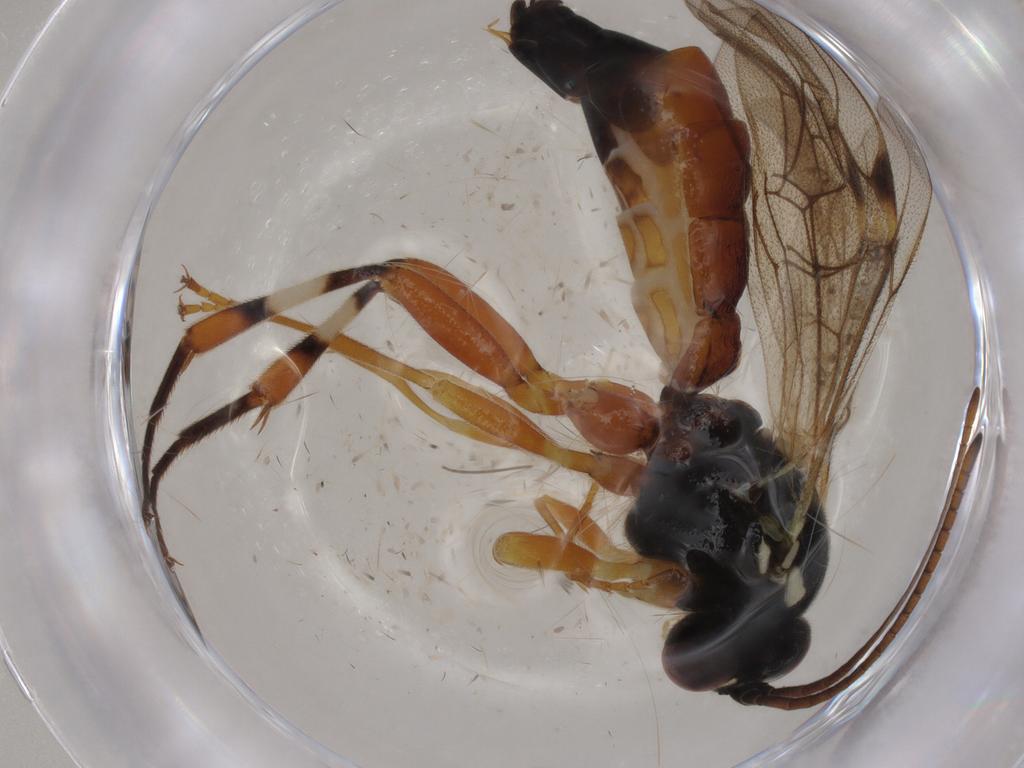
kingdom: Animalia
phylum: Arthropoda
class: Insecta
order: Hymenoptera
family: Ichneumonidae
